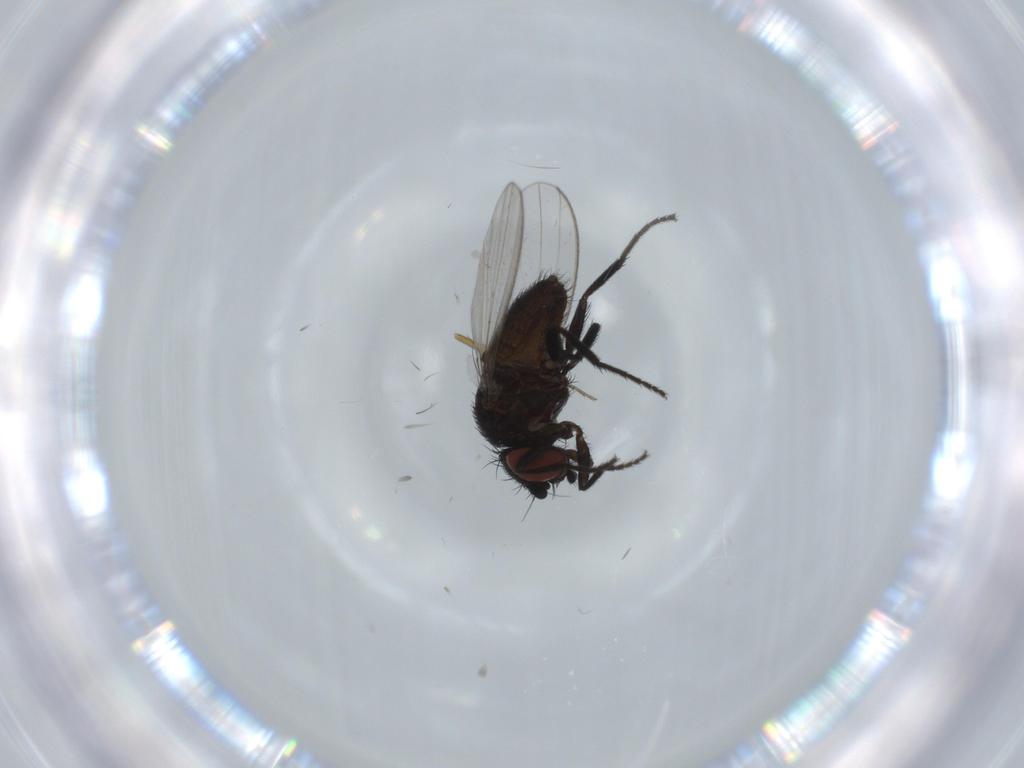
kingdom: Animalia
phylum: Arthropoda
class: Insecta
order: Diptera
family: Milichiidae
